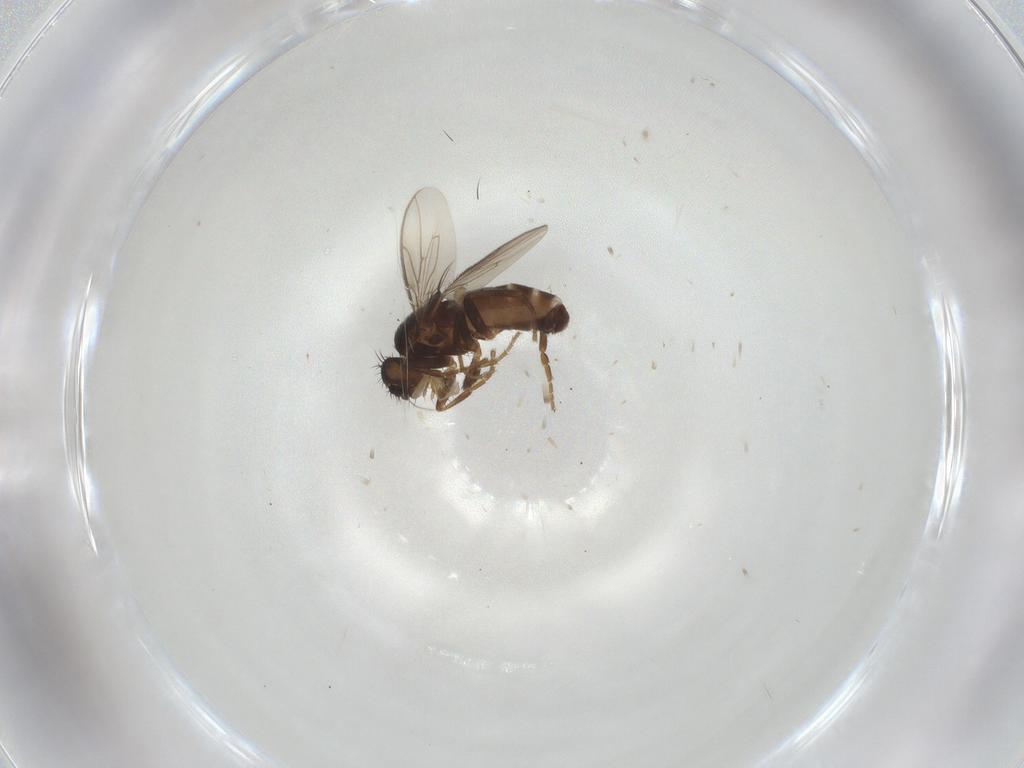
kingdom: Animalia
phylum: Arthropoda
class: Insecta
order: Diptera
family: Sphaeroceridae
